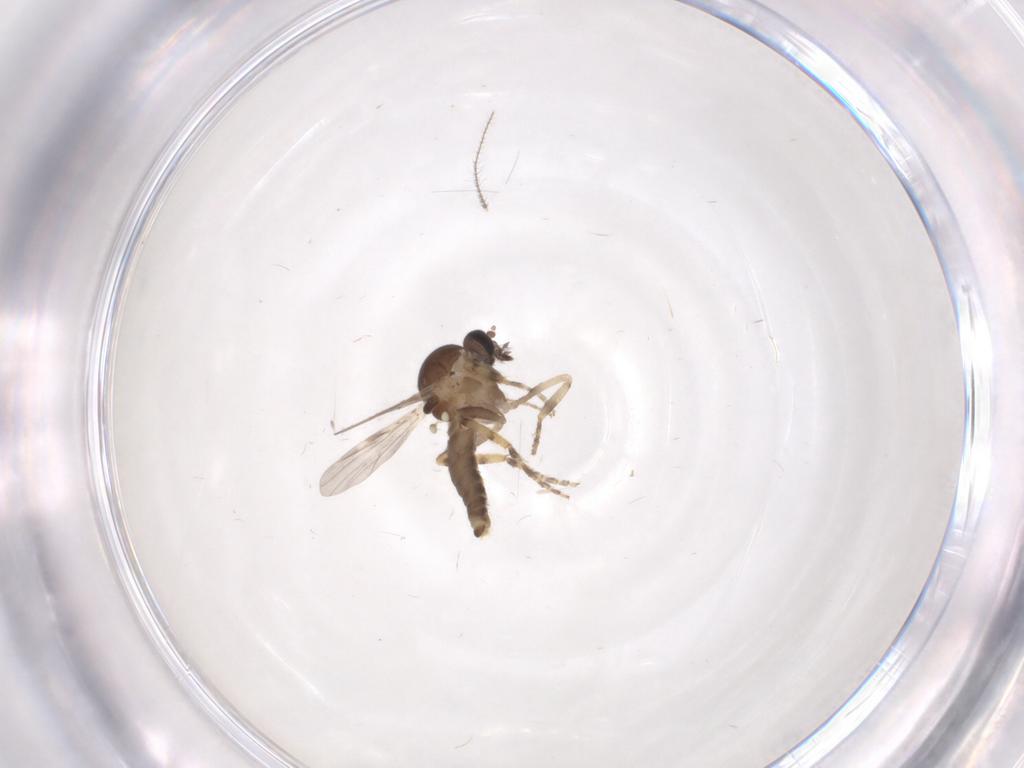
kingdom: Animalia
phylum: Arthropoda
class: Insecta
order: Diptera
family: Ceratopogonidae
